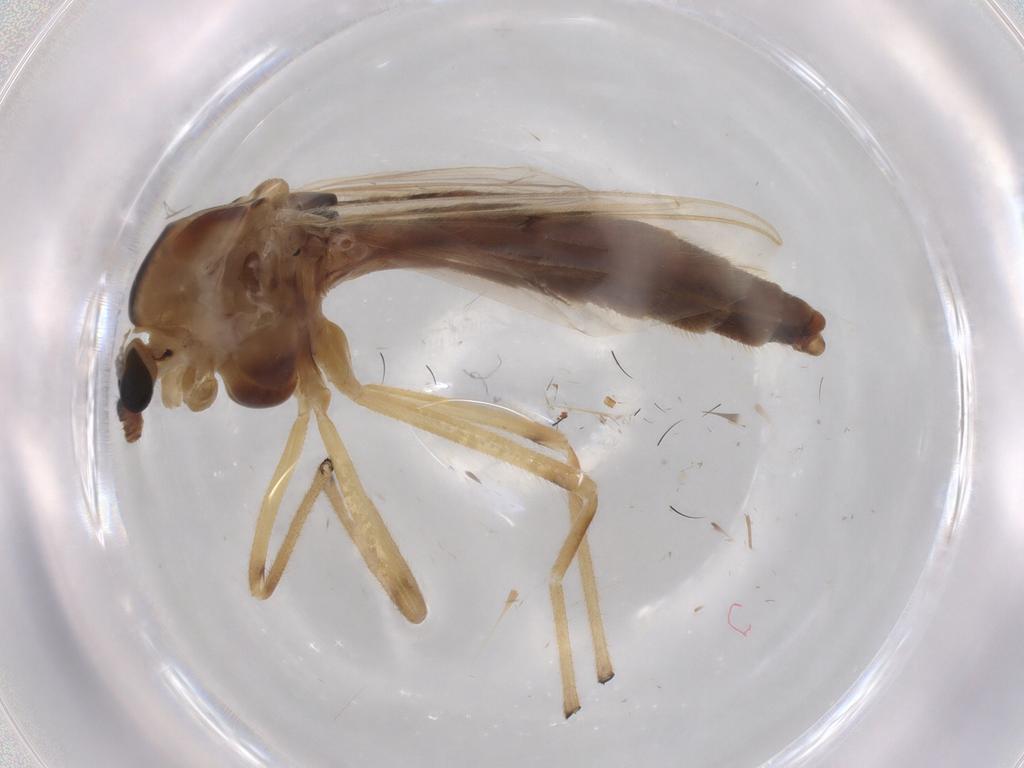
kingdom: Animalia
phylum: Arthropoda
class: Insecta
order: Diptera
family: Chironomidae
